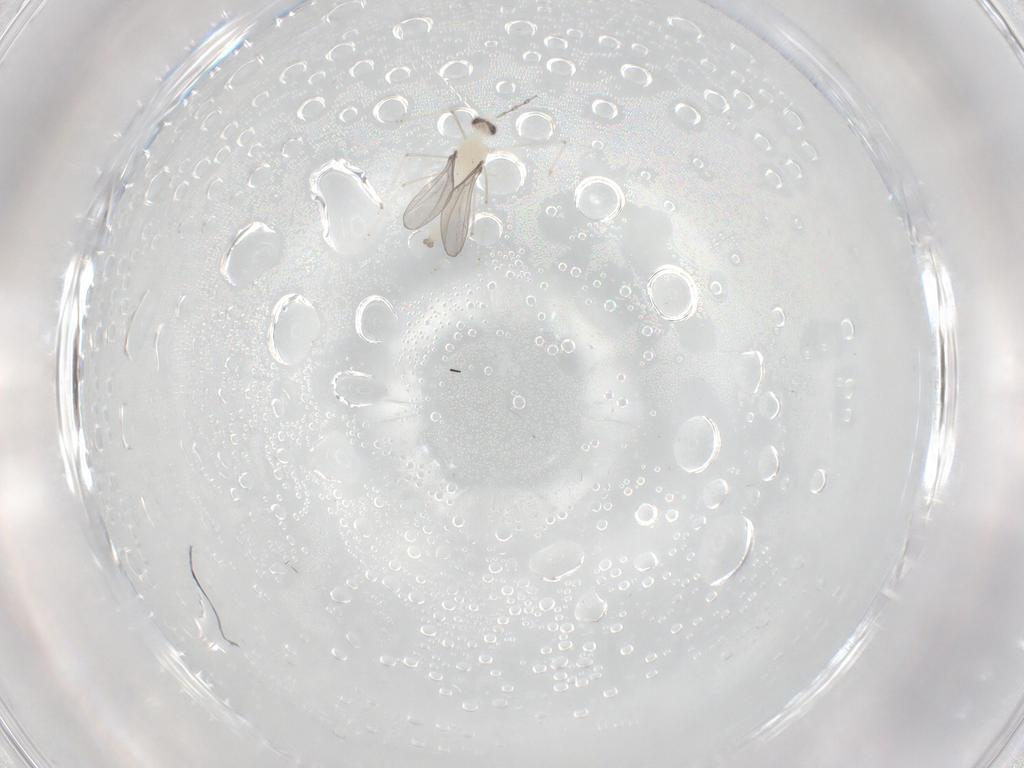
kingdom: Animalia
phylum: Arthropoda
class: Insecta
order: Diptera
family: Cecidomyiidae
